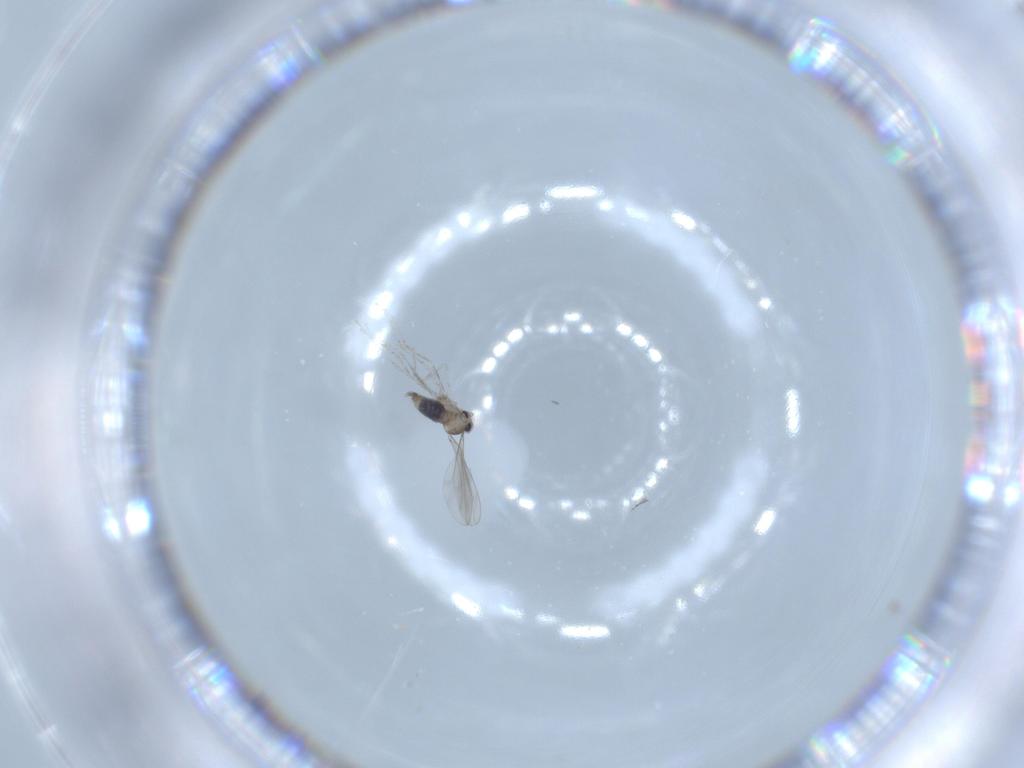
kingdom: Animalia
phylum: Arthropoda
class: Insecta
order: Diptera
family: Cecidomyiidae
